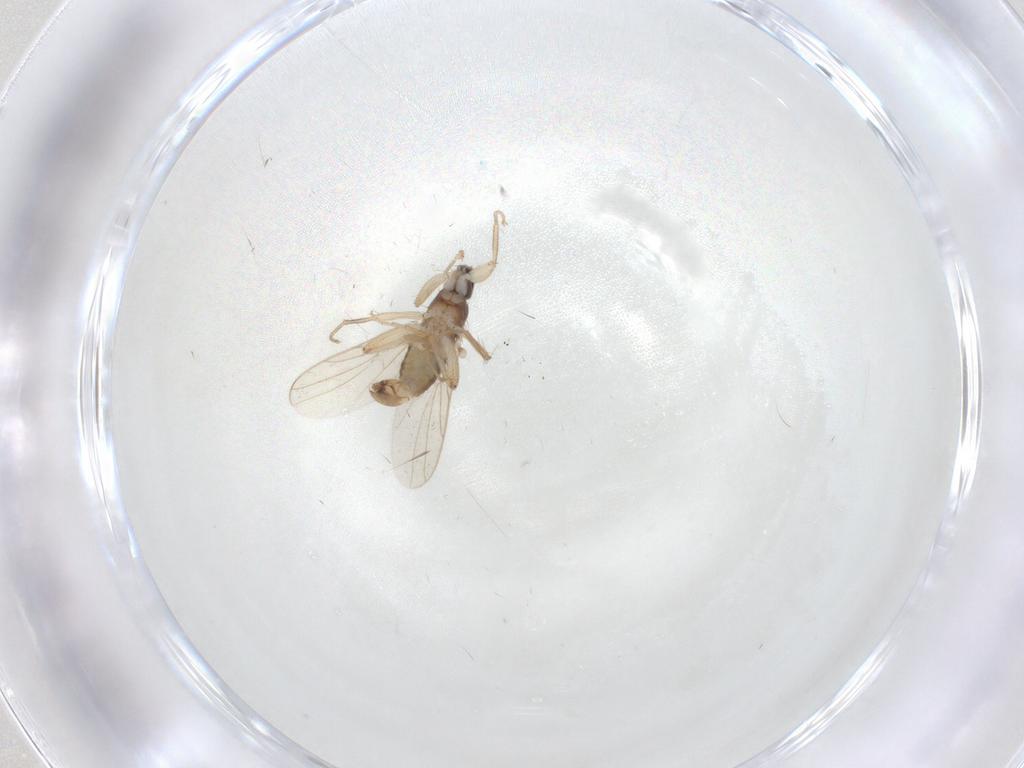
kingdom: Animalia
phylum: Arthropoda
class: Insecta
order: Diptera
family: Hybotidae
